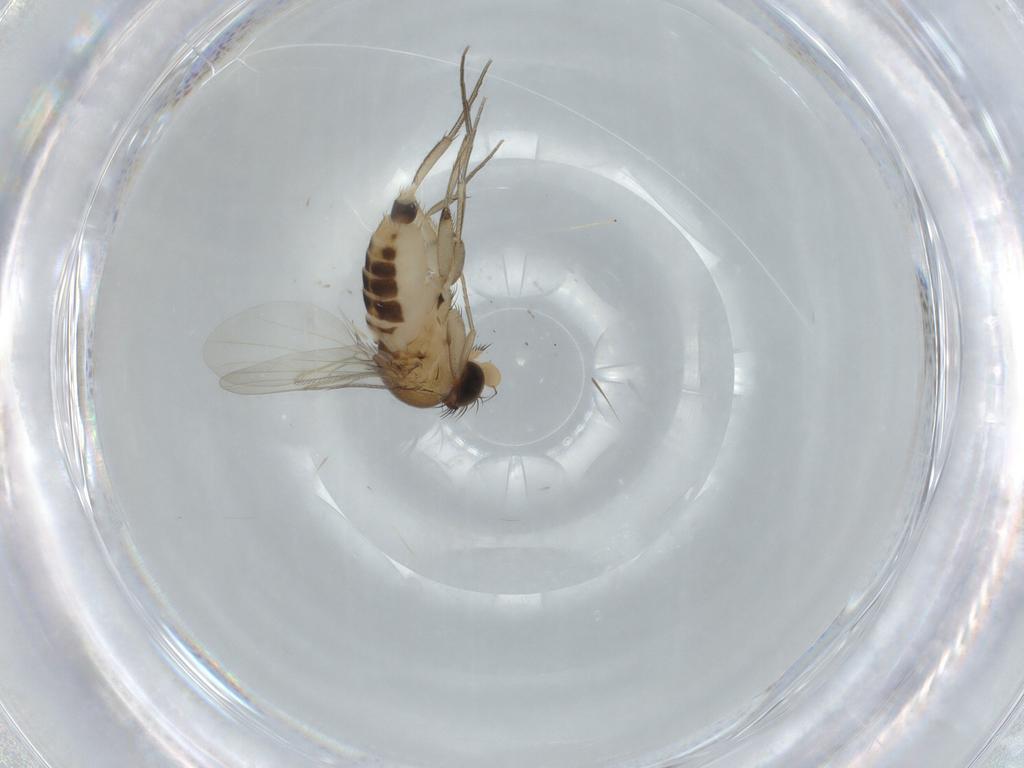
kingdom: Animalia
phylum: Arthropoda
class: Insecta
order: Diptera
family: Phoridae
